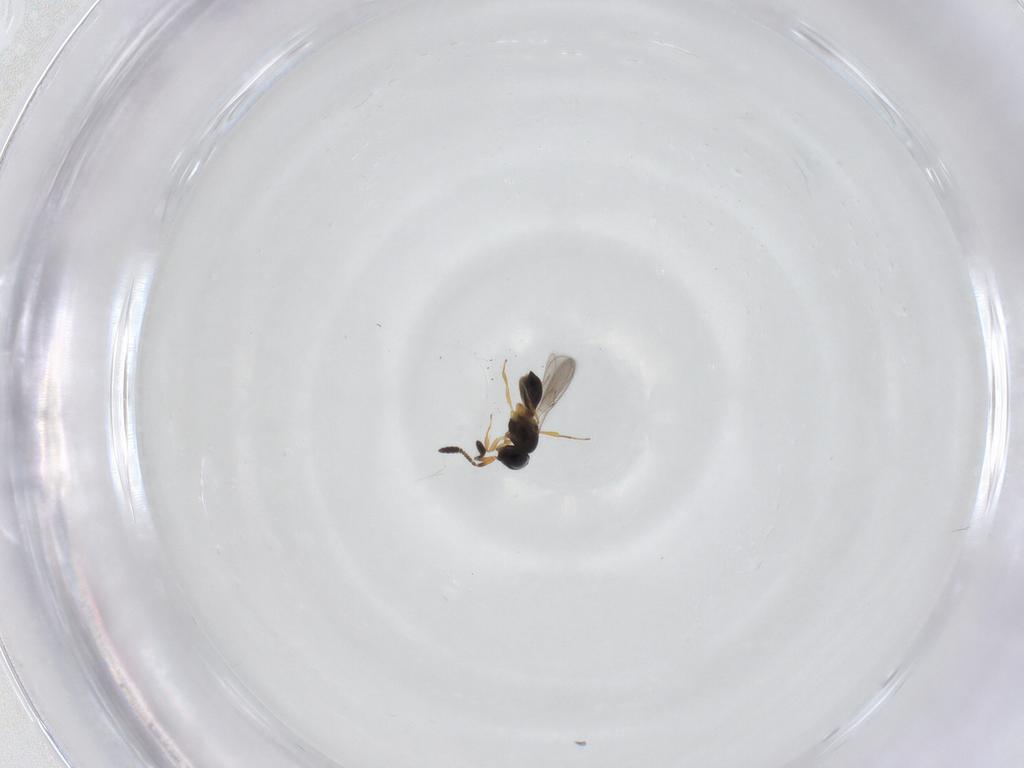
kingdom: Animalia
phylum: Arthropoda
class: Insecta
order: Hymenoptera
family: Scelionidae
